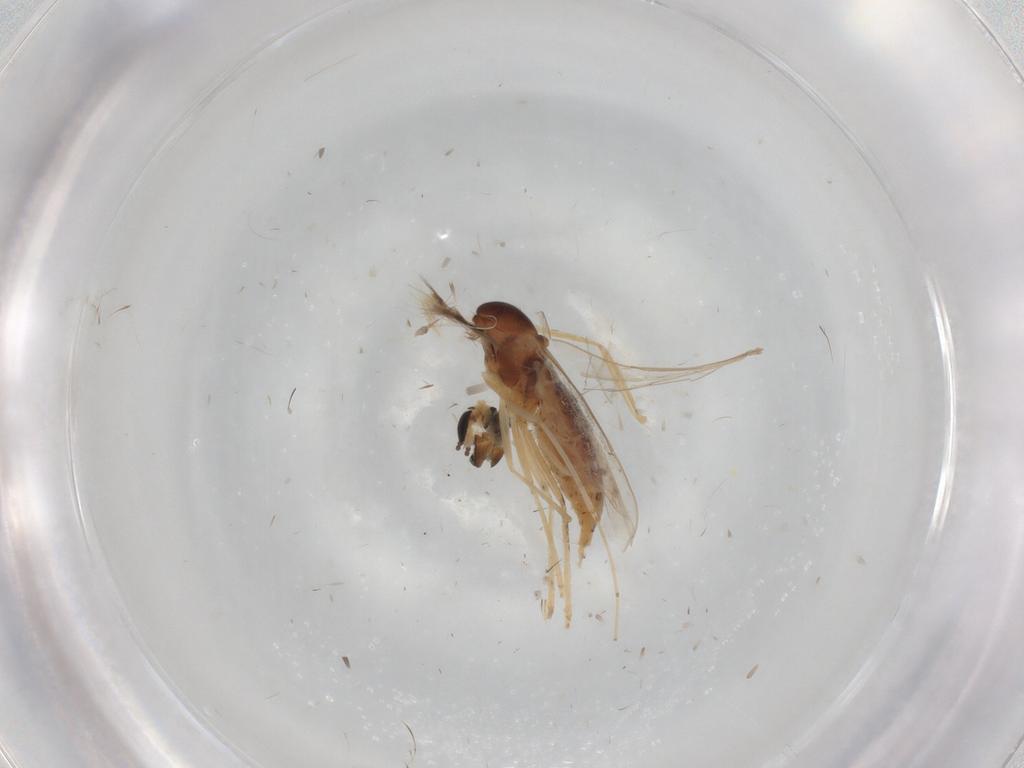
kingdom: Animalia
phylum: Arthropoda
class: Insecta
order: Diptera
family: Cecidomyiidae
